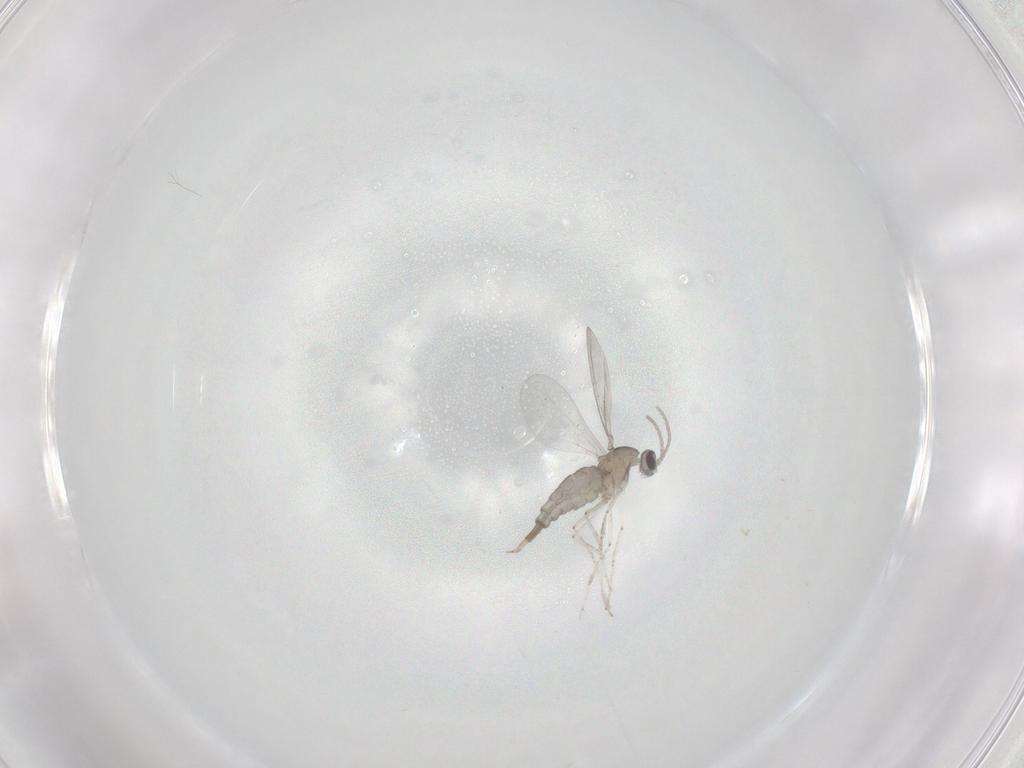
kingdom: Animalia
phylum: Arthropoda
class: Insecta
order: Diptera
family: Cecidomyiidae
